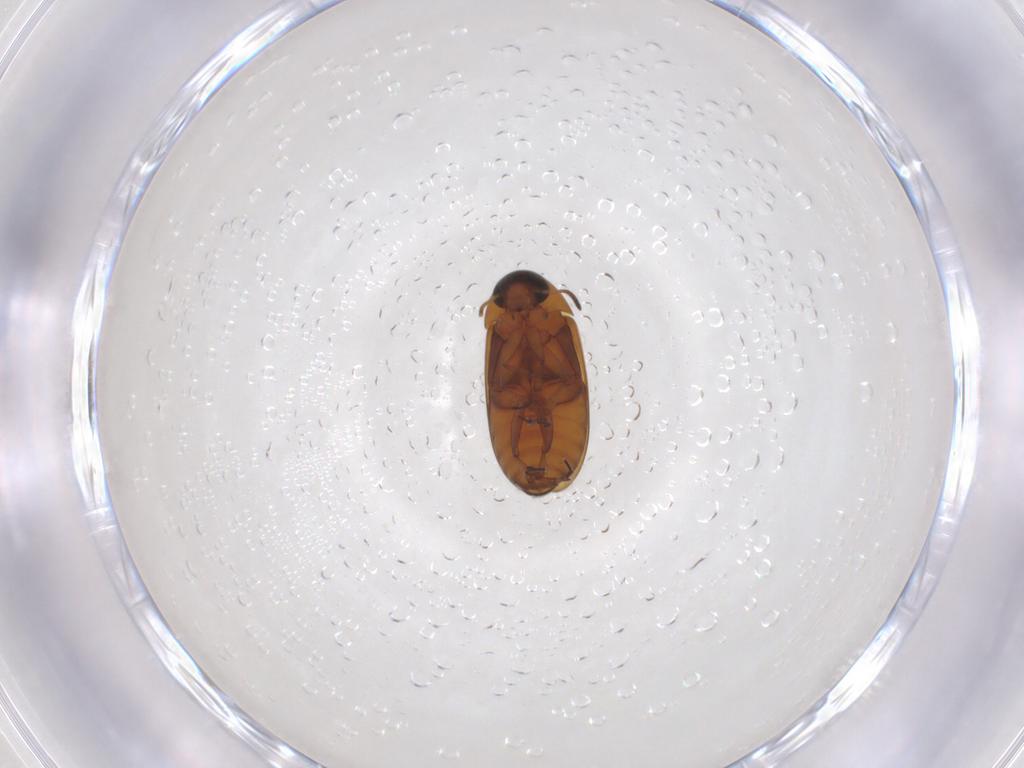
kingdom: Animalia
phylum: Arthropoda
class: Insecta
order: Coleoptera
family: Scraptiidae
